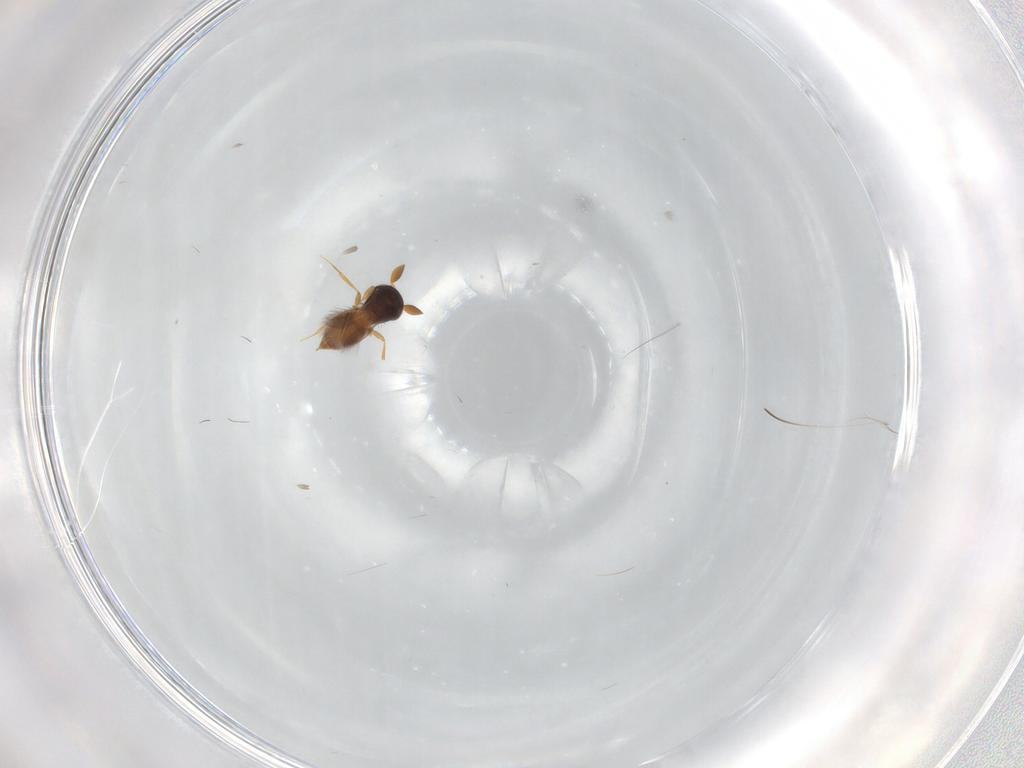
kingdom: Animalia
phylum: Arthropoda
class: Insecta
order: Hymenoptera
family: Scelionidae
